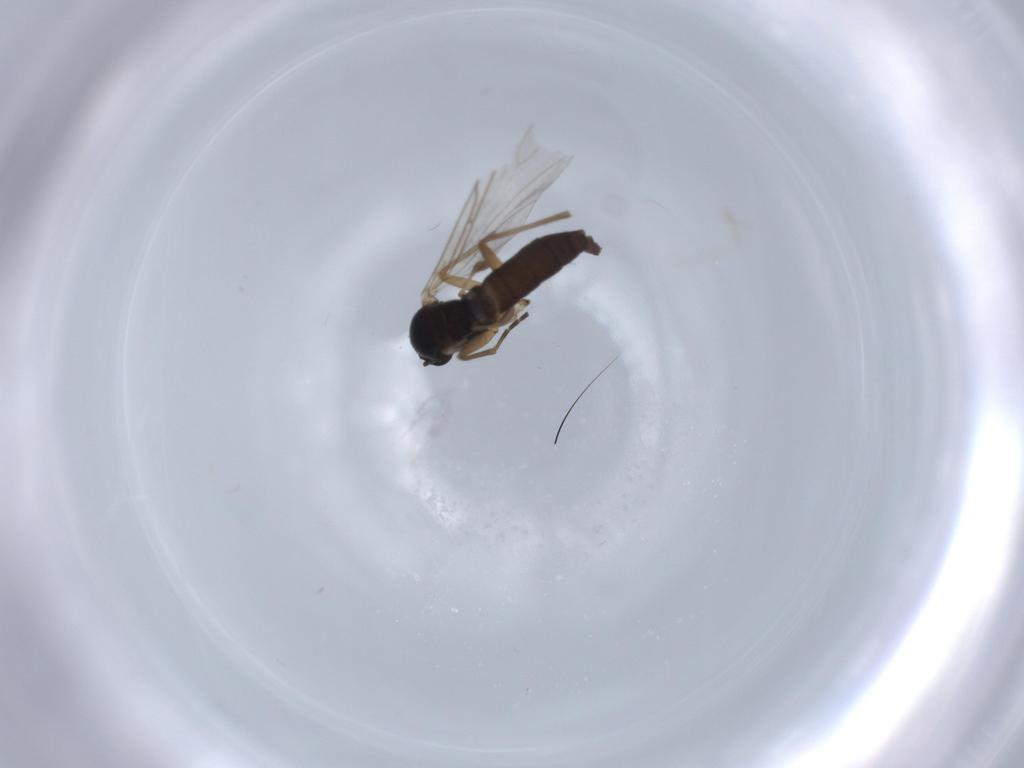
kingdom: Animalia
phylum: Arthropoda
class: Insecta
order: Diptera
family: Sciaridae
